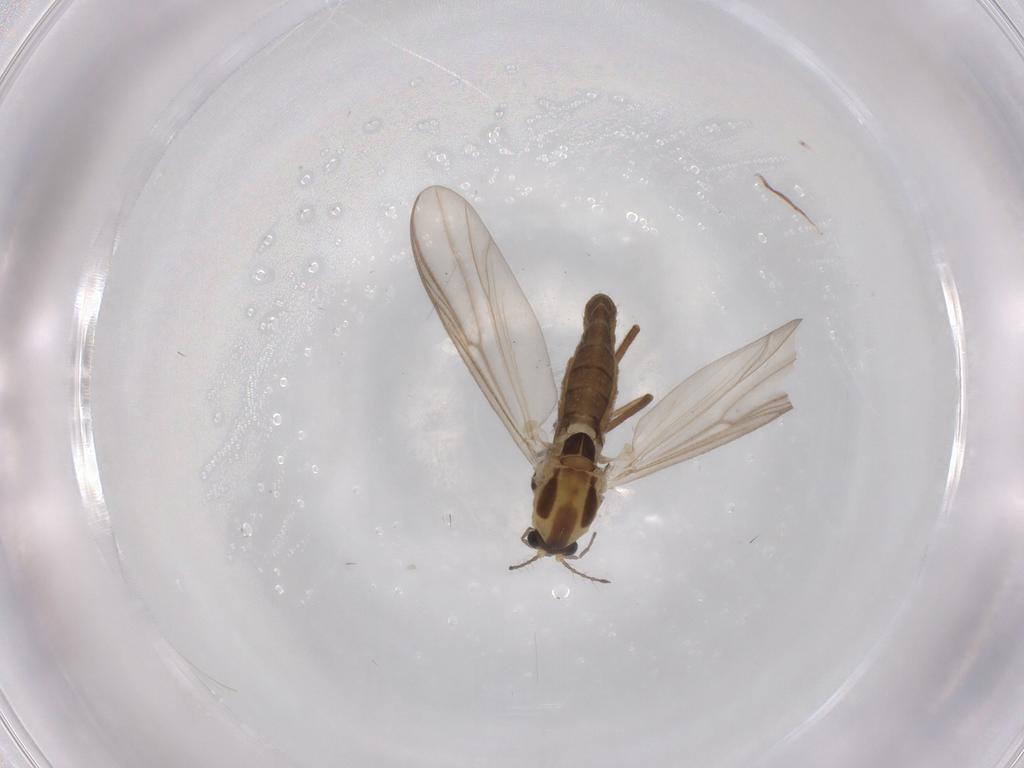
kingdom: Animalia
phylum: Arthropoda
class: Insecta
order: Diptera
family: Chironomidae
